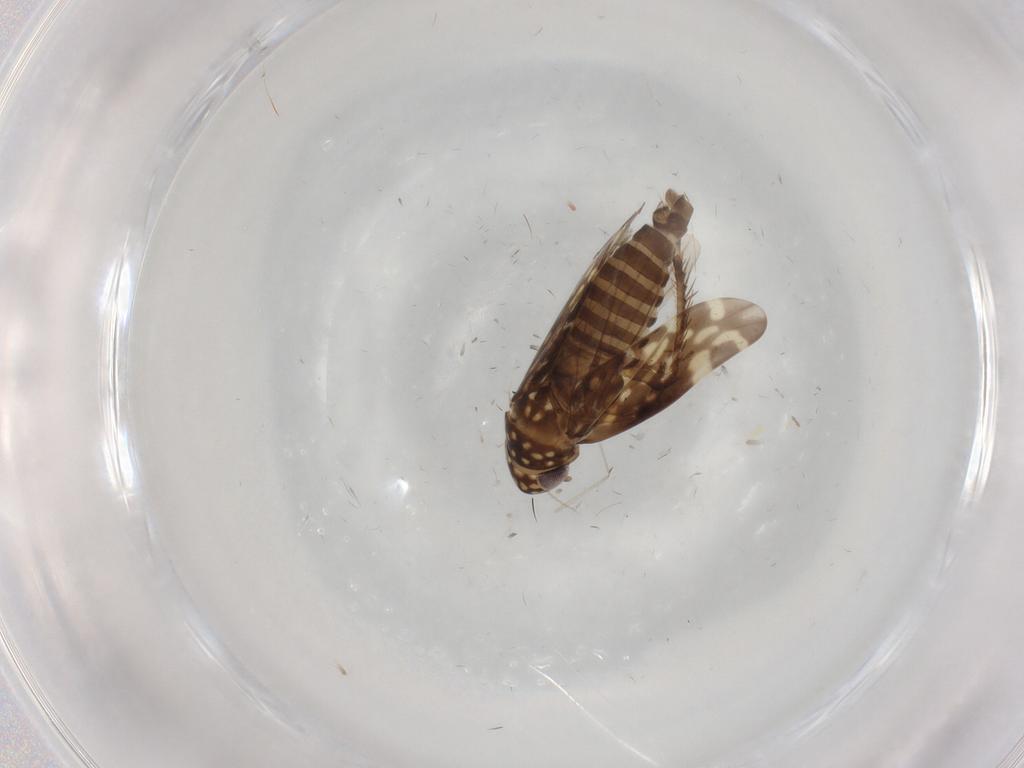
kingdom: Animalia
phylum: Arthropoda
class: Insecta
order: Hemiptera
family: Cicadellidae
